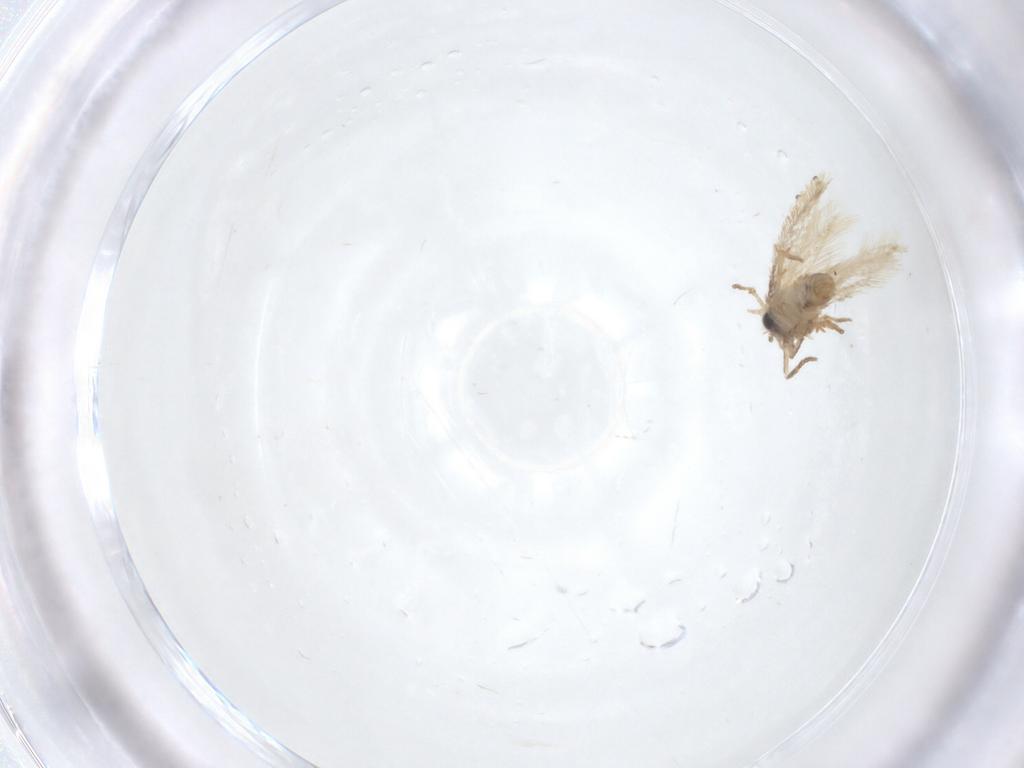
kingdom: Animalia
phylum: Arthropoda
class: Insecta
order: Lepidoptera
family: Nepticulidae
